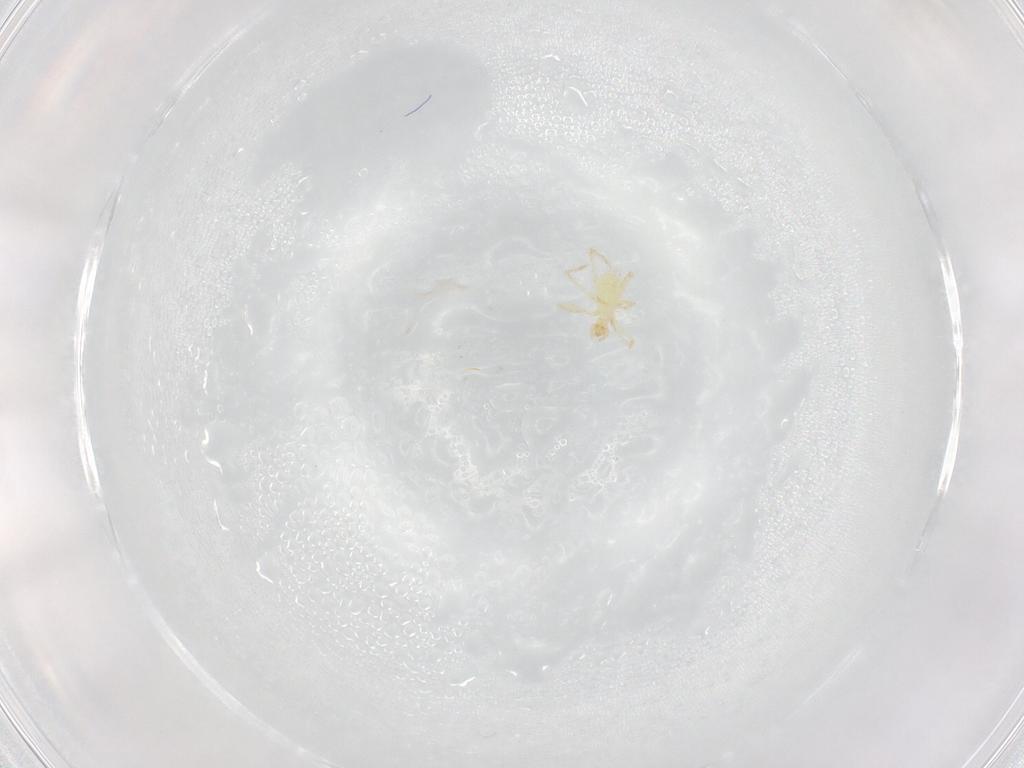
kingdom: Animalia
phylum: Arthropoda
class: Arachnida
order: Trombidiformes
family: Erythraeidae
